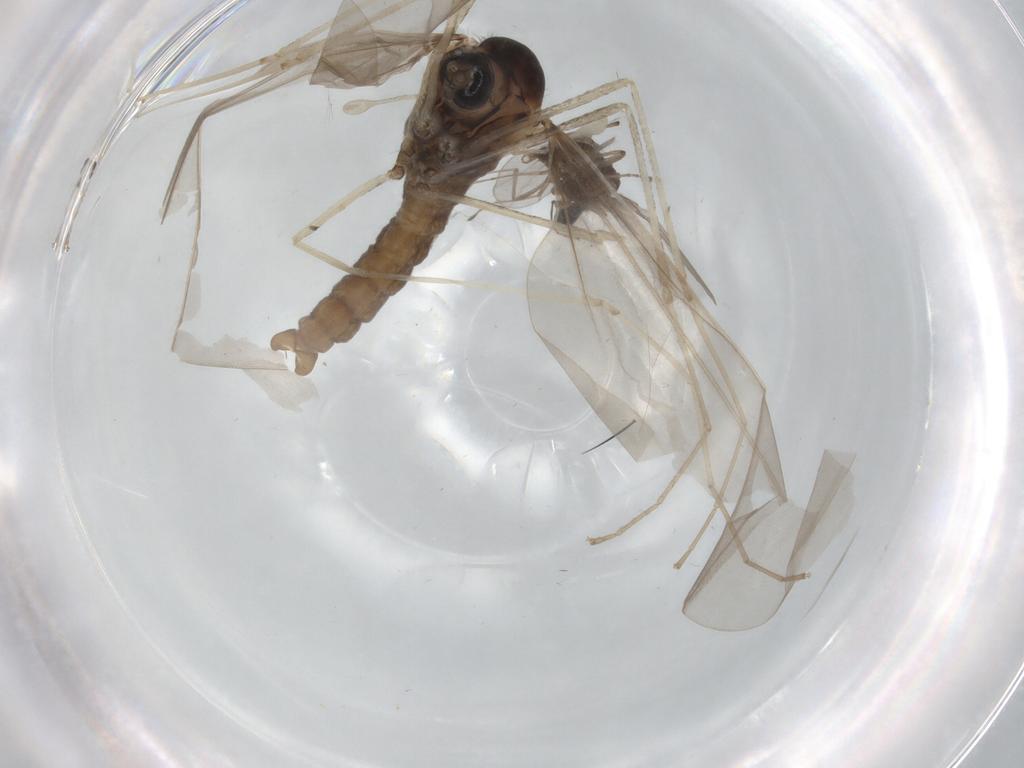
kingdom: Animalia
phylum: Arthropoda
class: Insecta
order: Diptera
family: Cecidomyiidae
